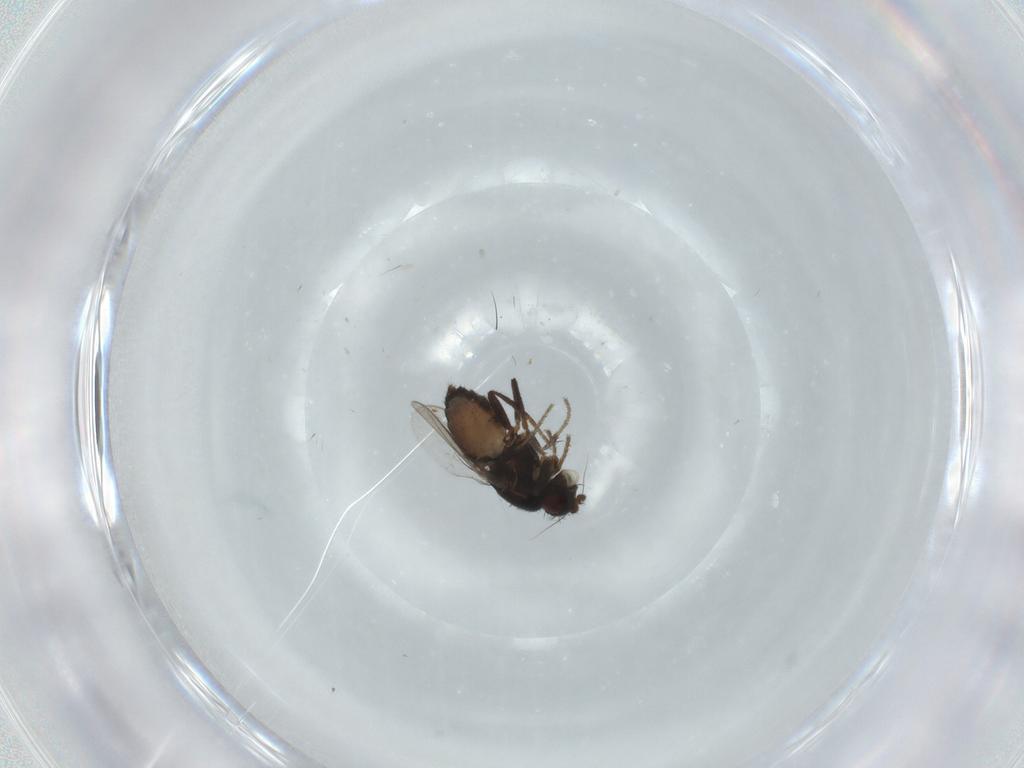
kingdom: Animalia
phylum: Arthropoda
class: Insecta
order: Diptera
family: Sphaeroceridae
